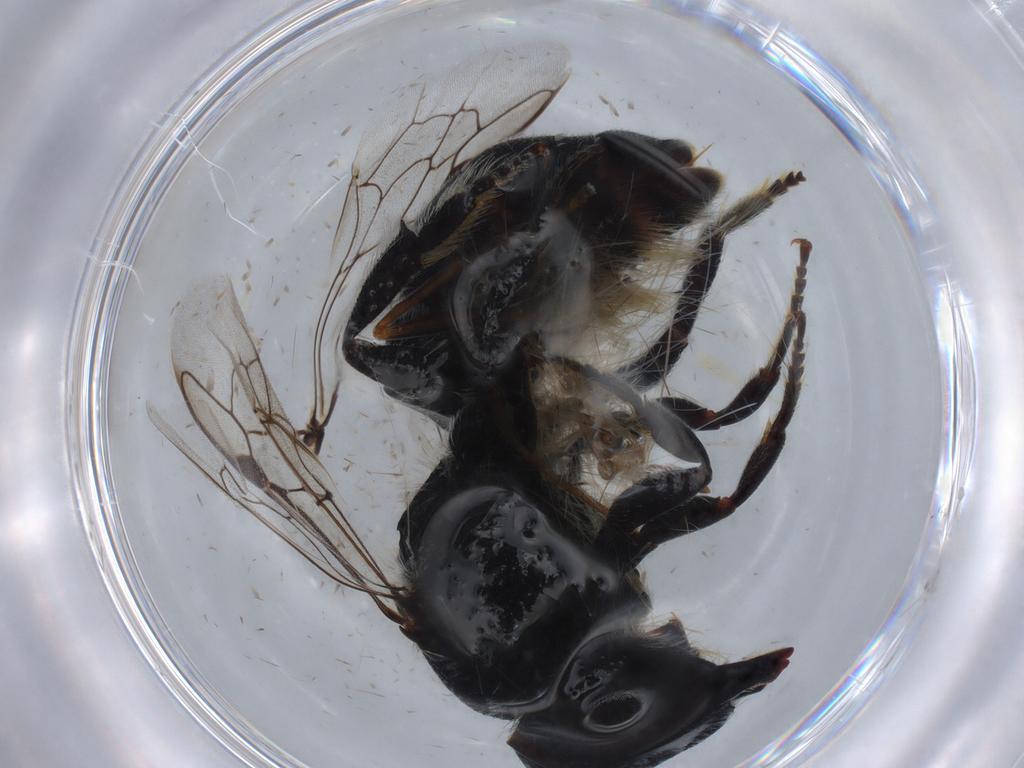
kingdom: Animalia
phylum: Arthropoda
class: Insecta
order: Hymenoptera
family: Megachilidae
